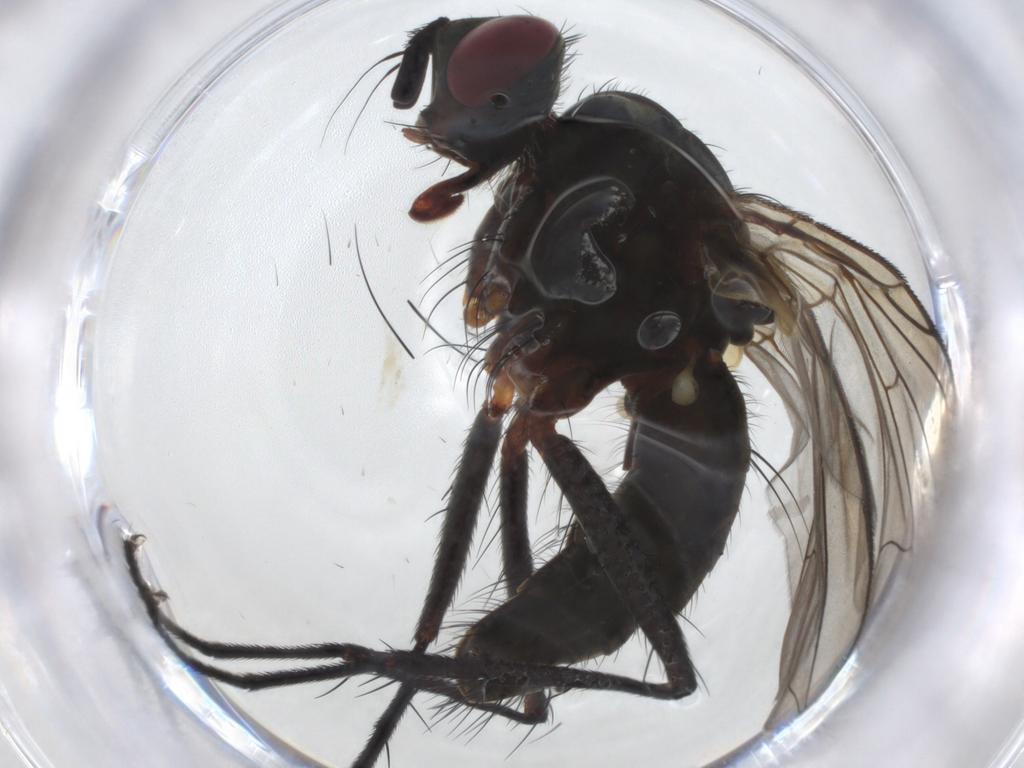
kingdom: Animalia
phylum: Arthropoda
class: Insecta
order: Diptera
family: Tachinidae
